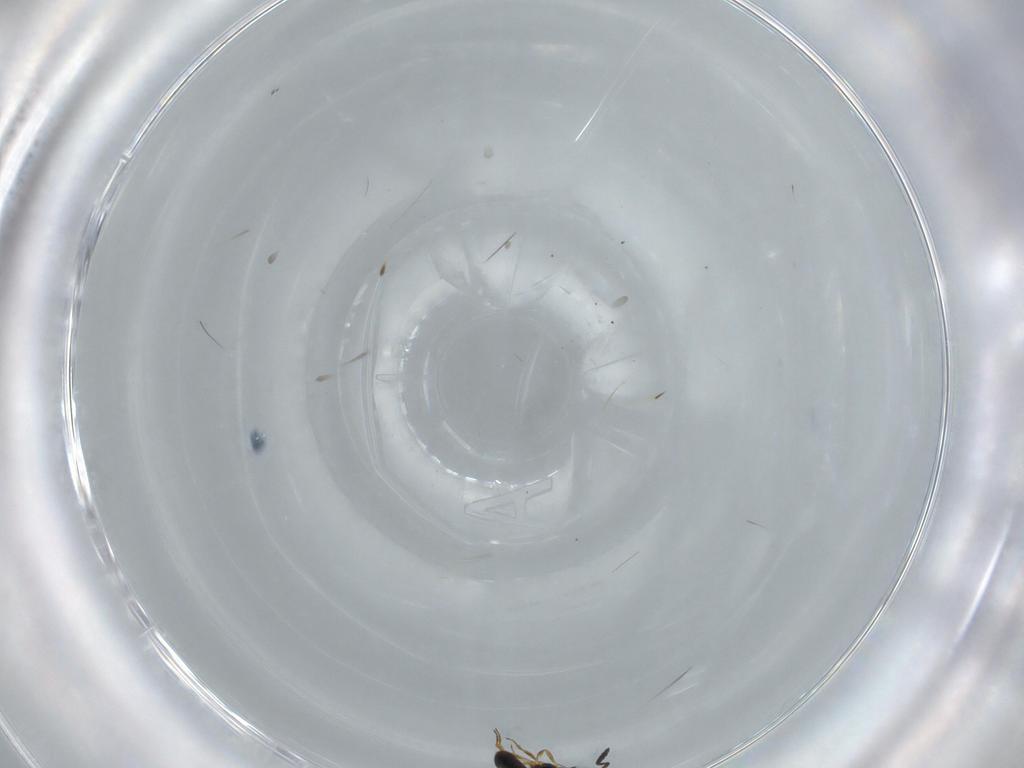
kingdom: Animalia
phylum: Arthropoda
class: Insecta
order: Hymenoptera
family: Scelionidae
